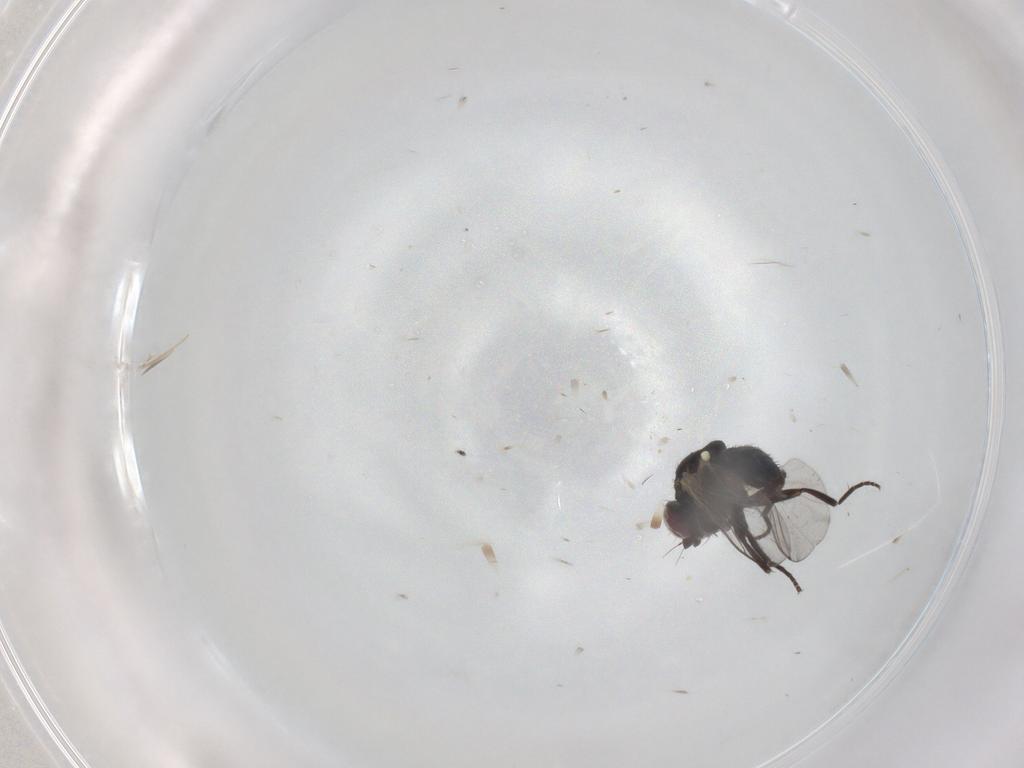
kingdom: Animalia
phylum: Arthropoda
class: Insecta
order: Diptera
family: Cecidomyiidae
